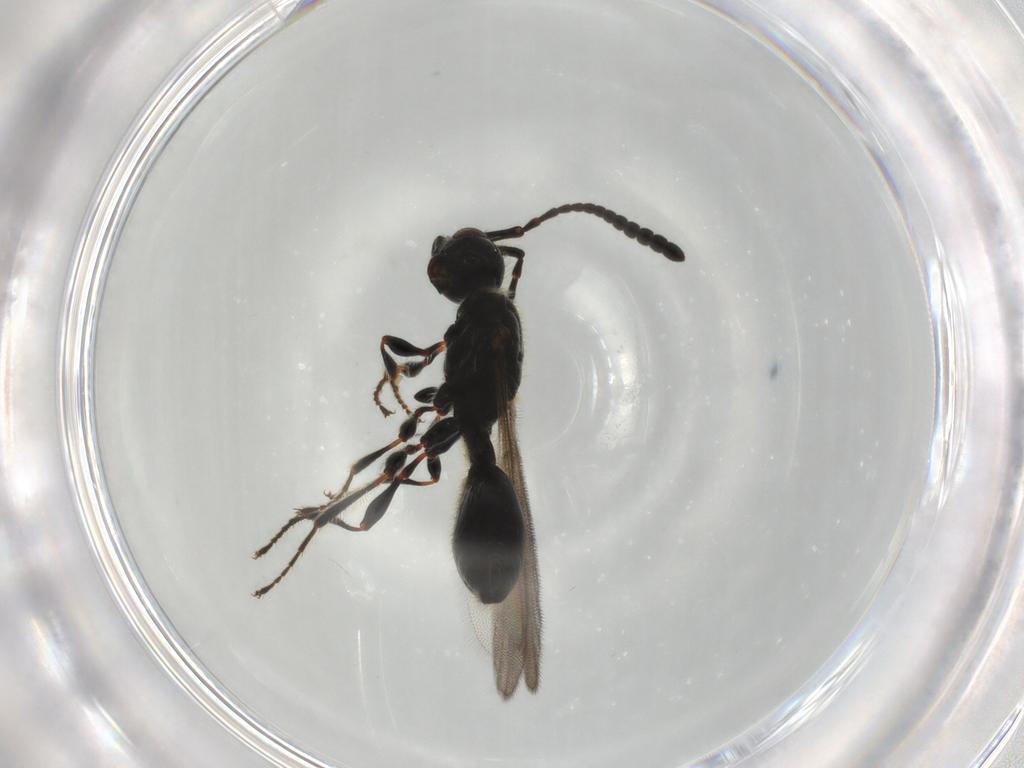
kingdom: Animalia
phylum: Arthropoda
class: Insecta
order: Hymenoptera
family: Diapriidae
